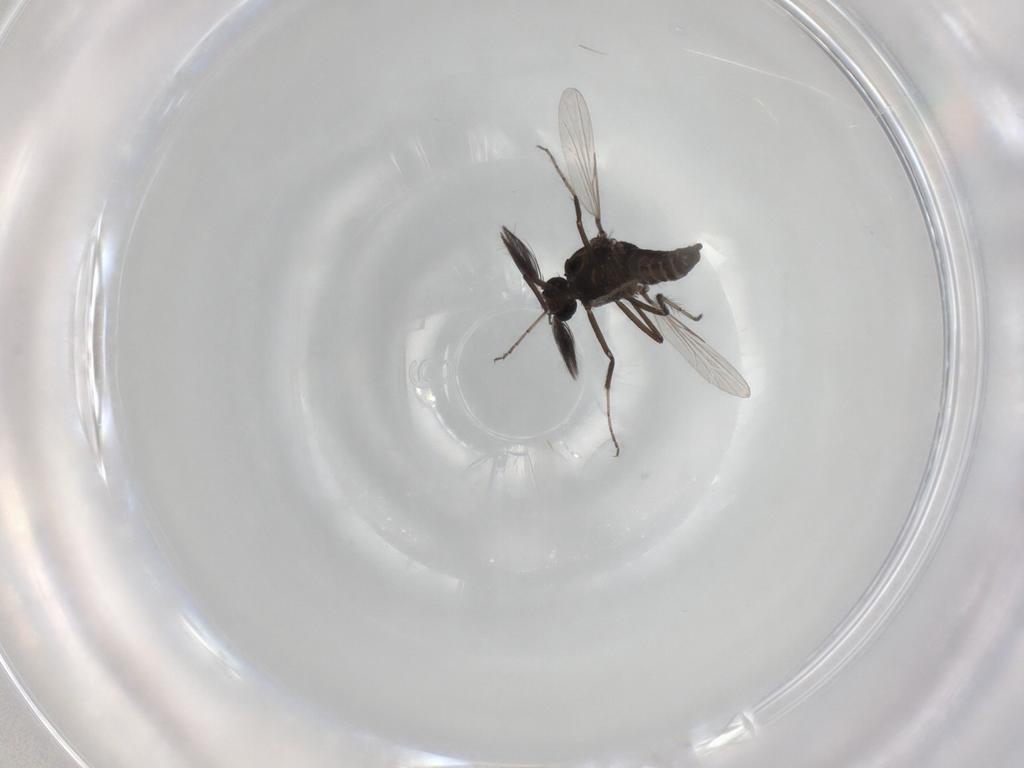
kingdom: Animalia
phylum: Arthropoda
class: Insecta
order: Diptera
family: Limoniidae
